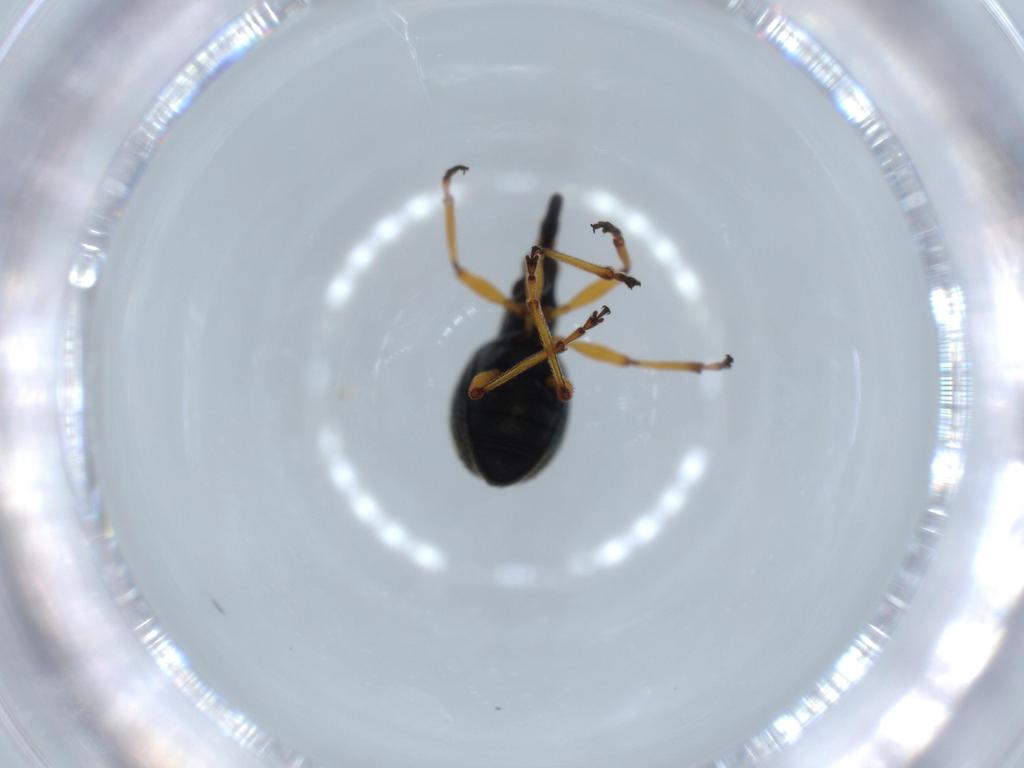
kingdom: Animalia
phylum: Arthropoda
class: Insecta
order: Coleoptera
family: Brentidae
